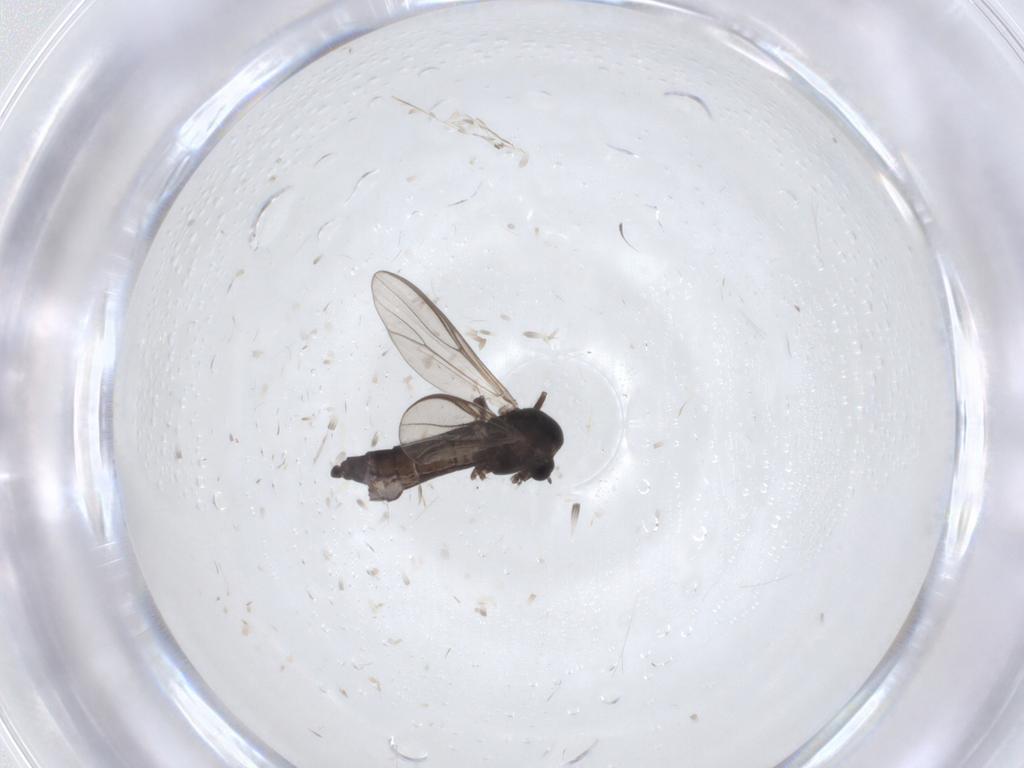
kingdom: Animalia
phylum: Arthropoda
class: Insecta
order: Diptera
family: Chironomidae
